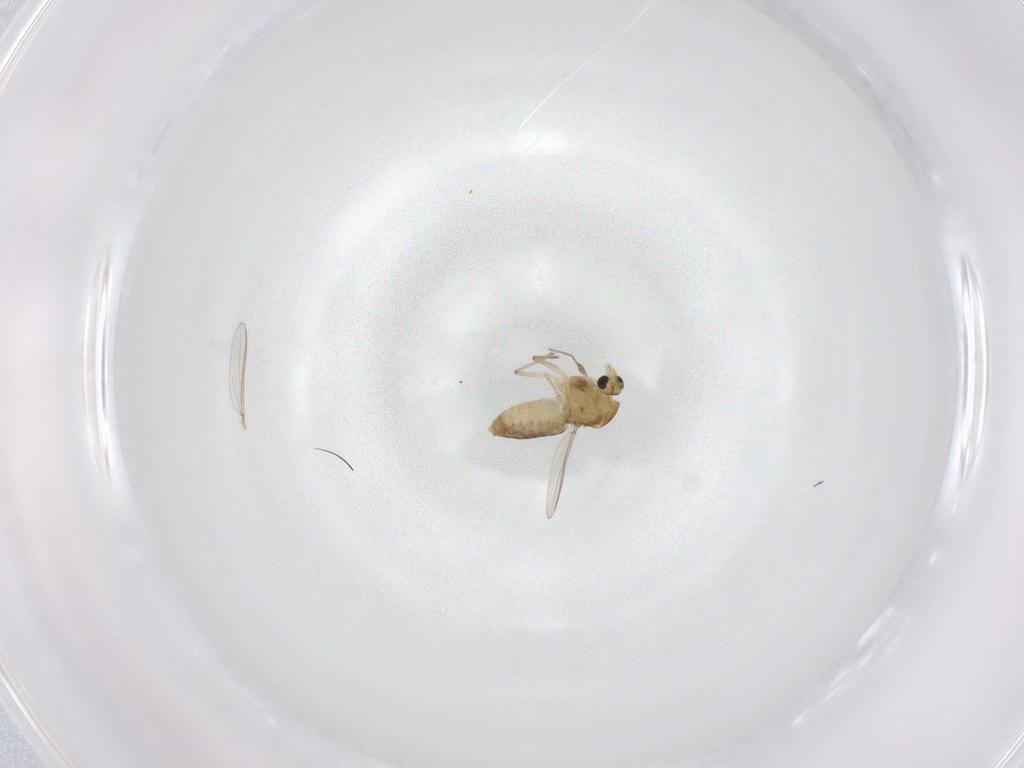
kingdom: Animalia
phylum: Arthropoda
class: Insecta
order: Diptera
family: Chironomidae
